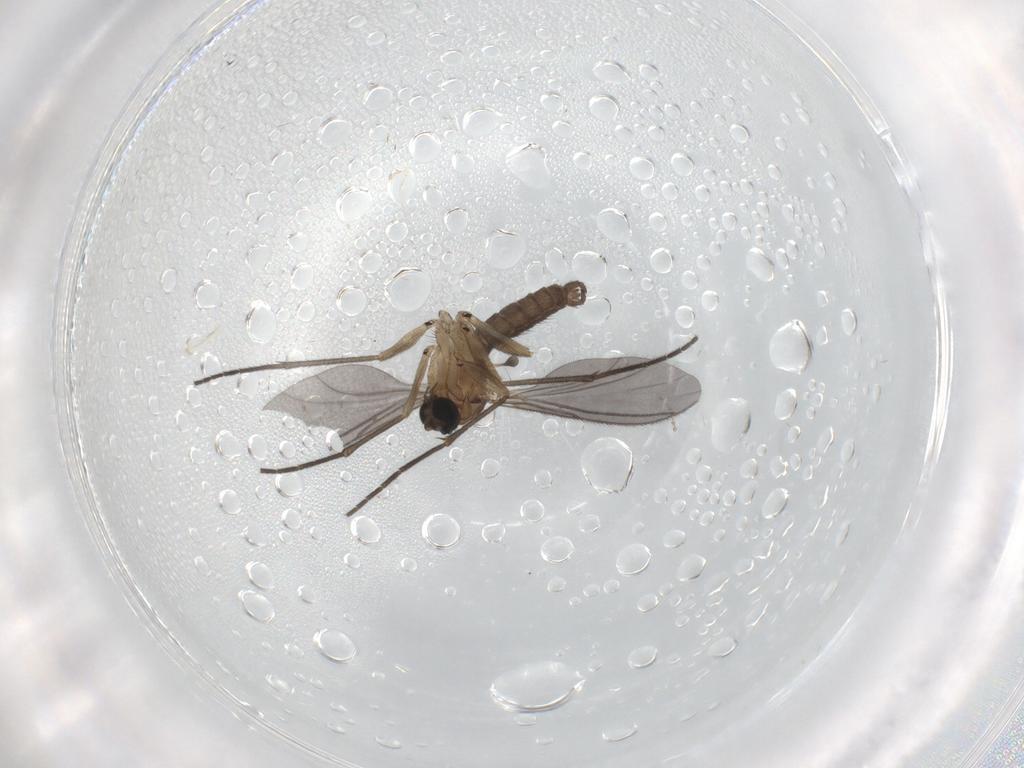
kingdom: Animalia
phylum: Arthropoda
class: Insecta
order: Diptera
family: Sciaridae
